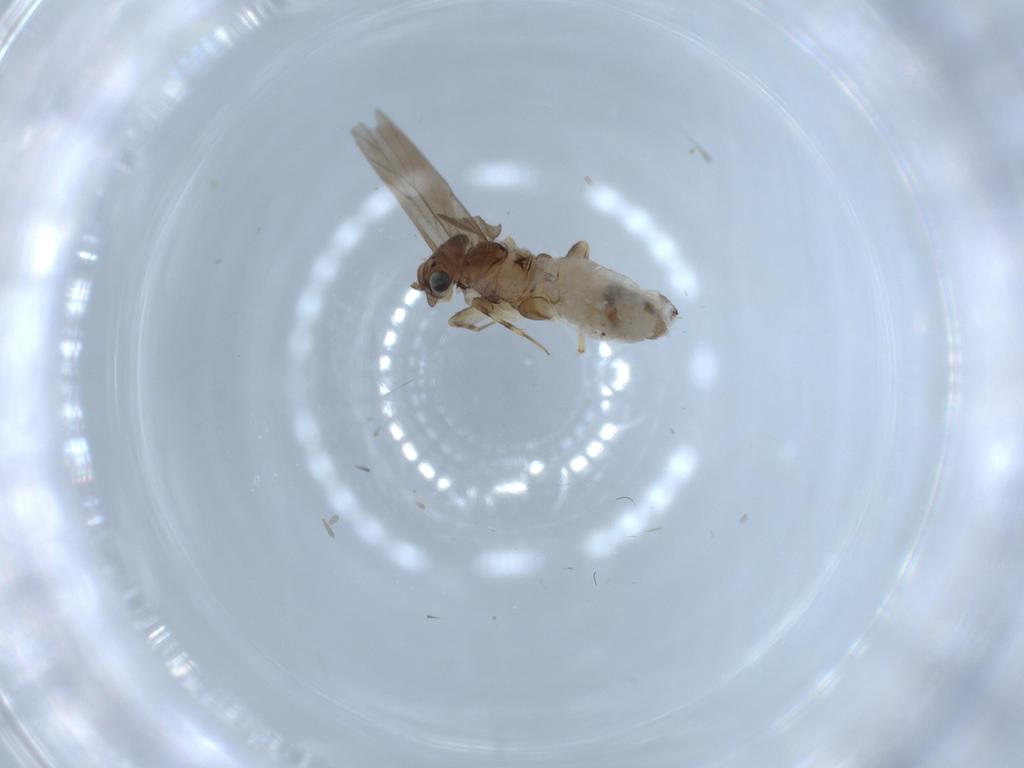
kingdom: Animalia
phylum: Arthropoda
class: Insecta
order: Psocodea
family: Lepidopsocidae
